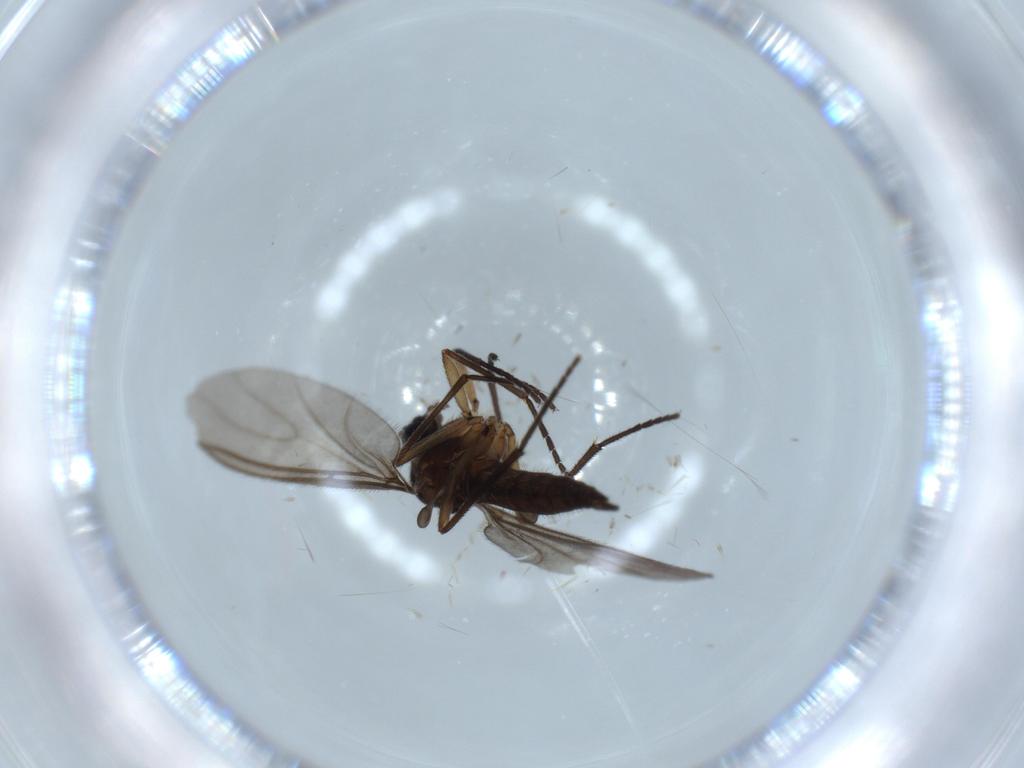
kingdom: Animalia
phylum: Arthropoda
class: Insecta
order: Diptera
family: Sciaridae
